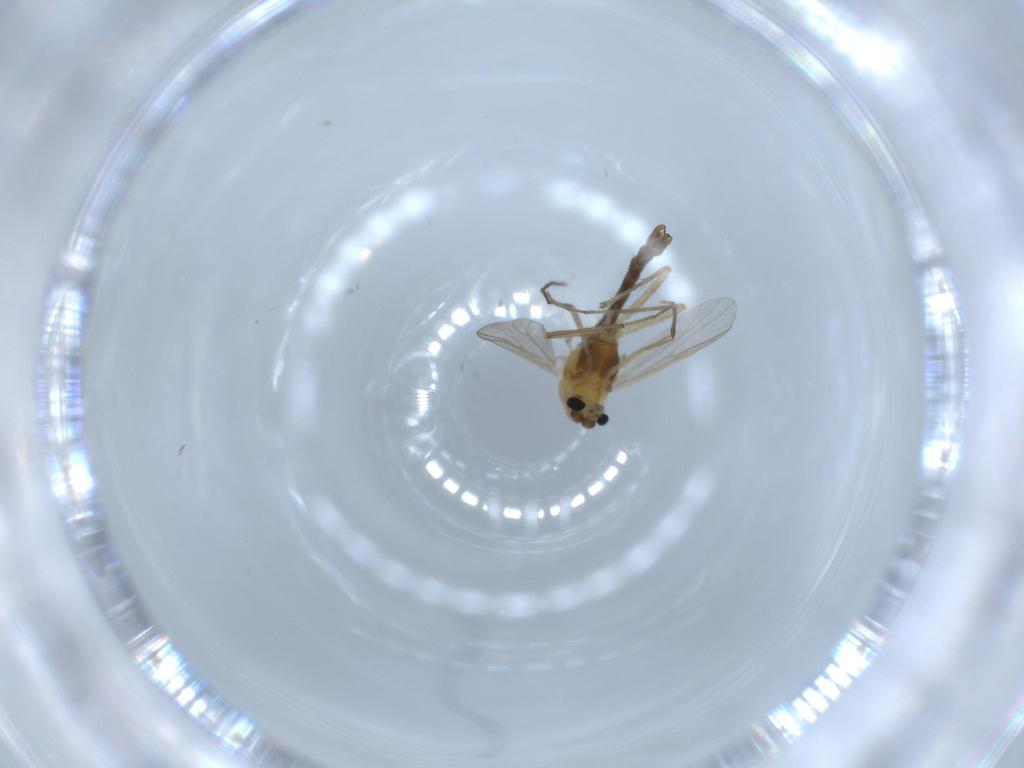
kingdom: Animalia
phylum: Arthropoda
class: Insecta
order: Diptera
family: Chironomidae
